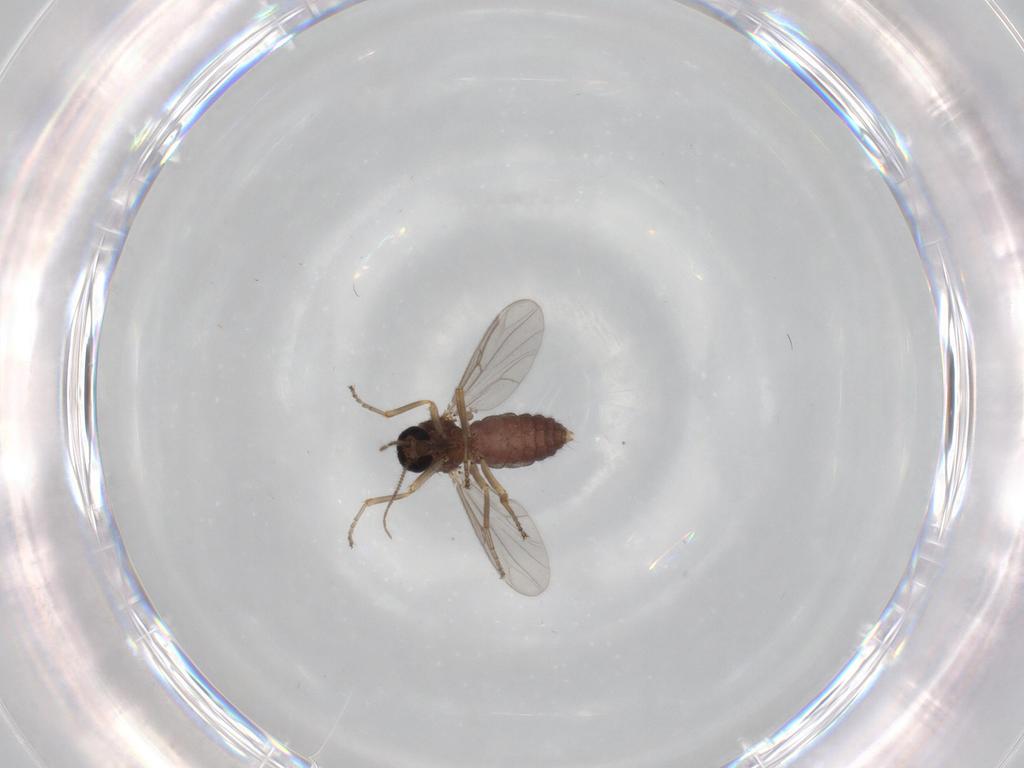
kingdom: Animalia
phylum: Arthropoda
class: Insecta
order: Diptera
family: Ceratopogonidae
